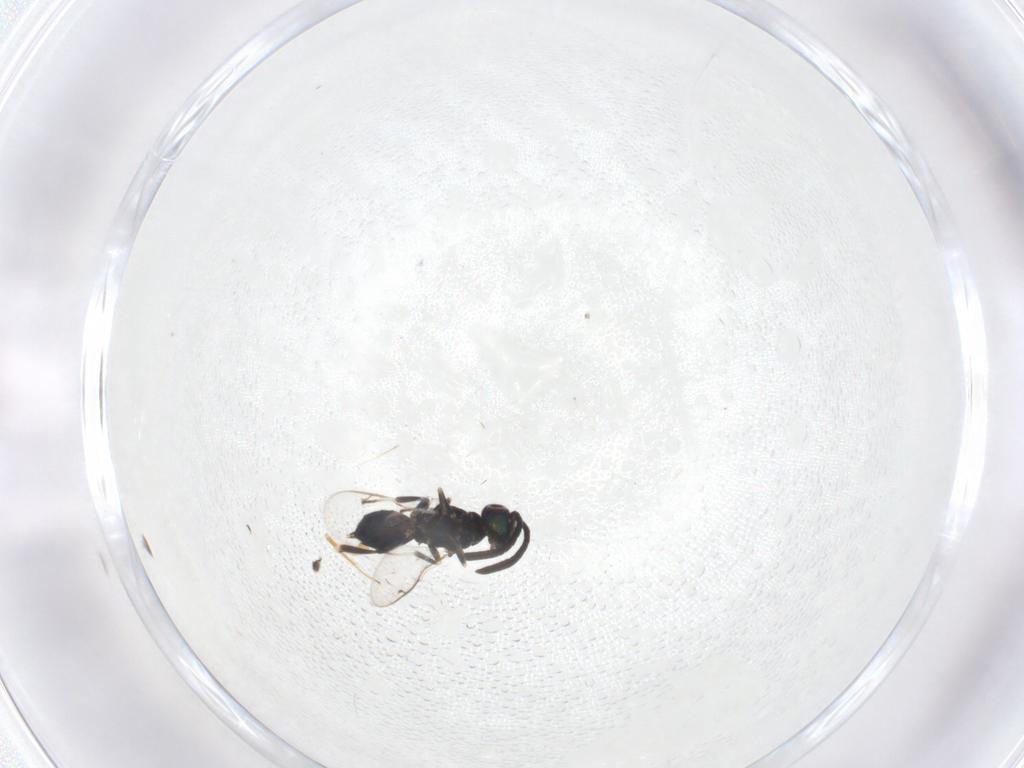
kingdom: Animalia
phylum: Arthropoda
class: Insecta
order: Hymenoptera
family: Encyrtidae
